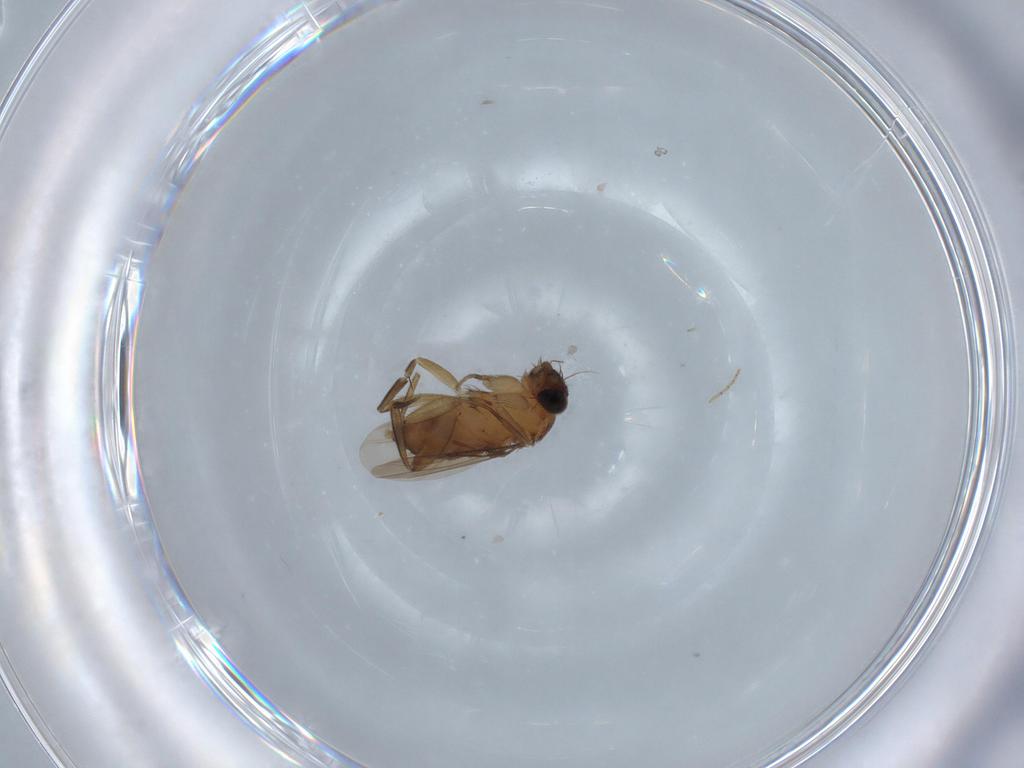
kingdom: Animalia
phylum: Arthropoda
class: Insecta
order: Diptera
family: Phoridae
